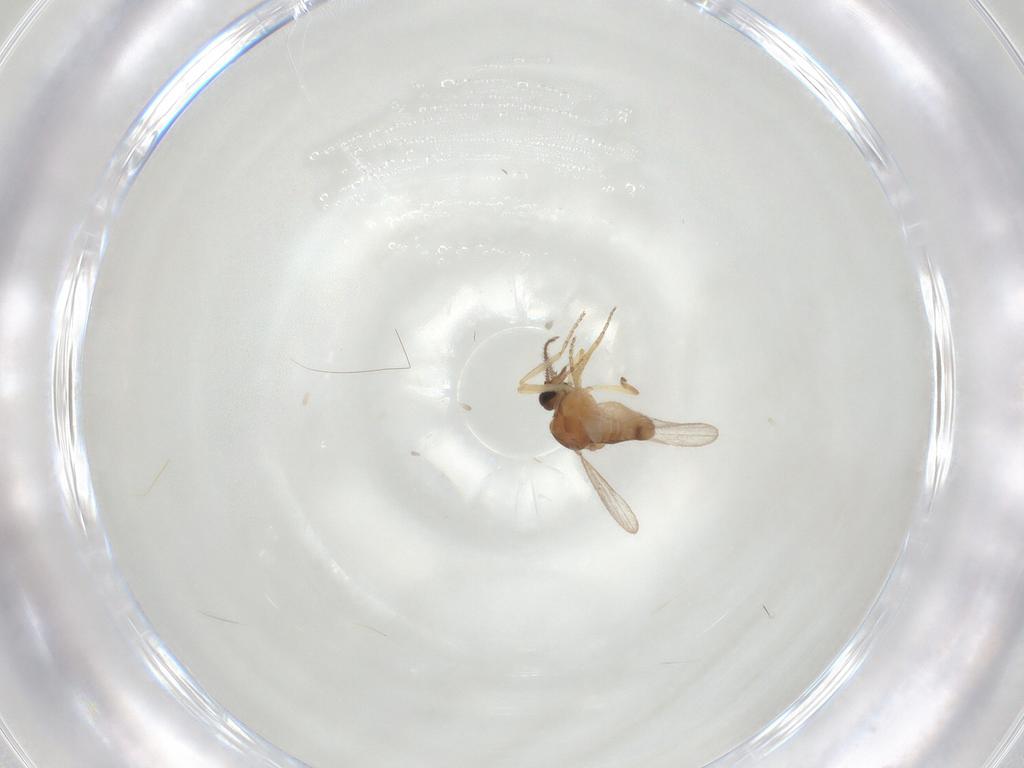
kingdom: Animalia
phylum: Arthropoda
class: Insecta
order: Diptera
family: Ceratopogonidae
